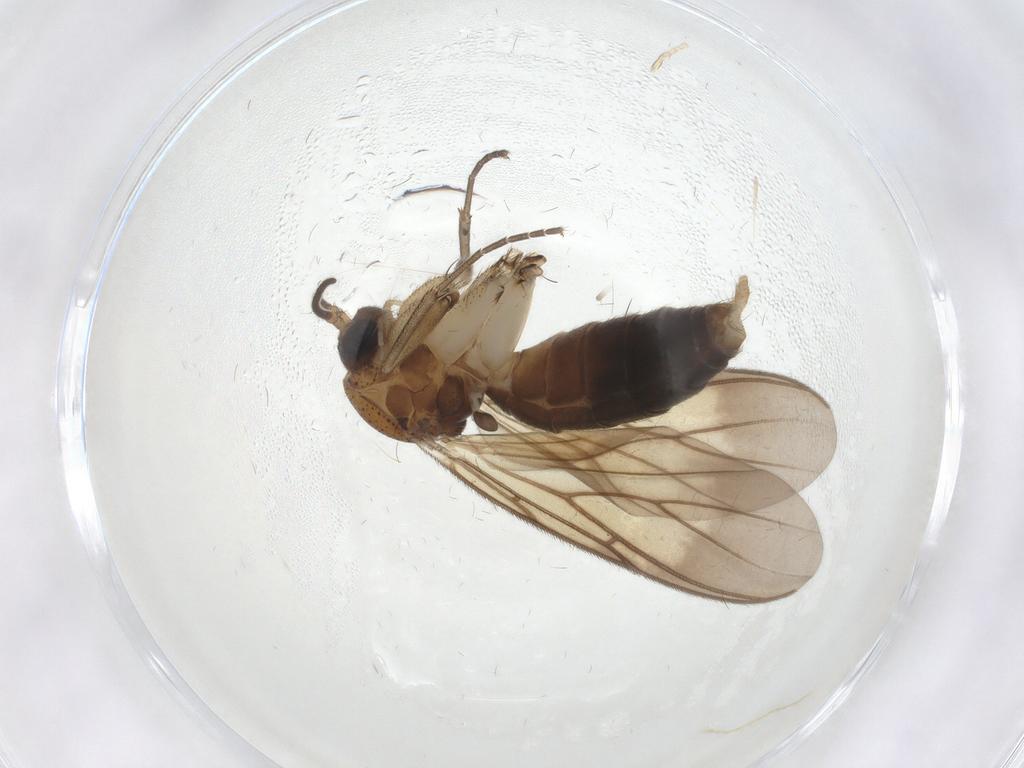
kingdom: Animalia
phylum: Arthropoda
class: Insecta
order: Diptera
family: Mycetophilidae
